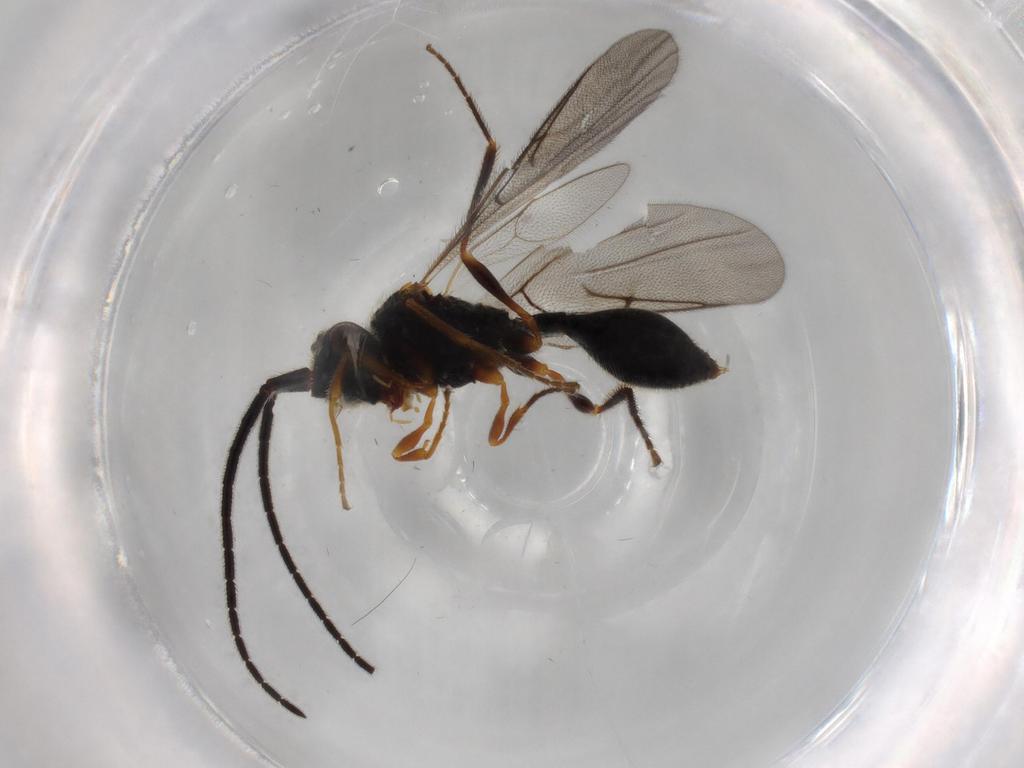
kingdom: Animalia
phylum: Arthropoda
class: Insecta
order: Hymenoptera
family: Diapriidae
